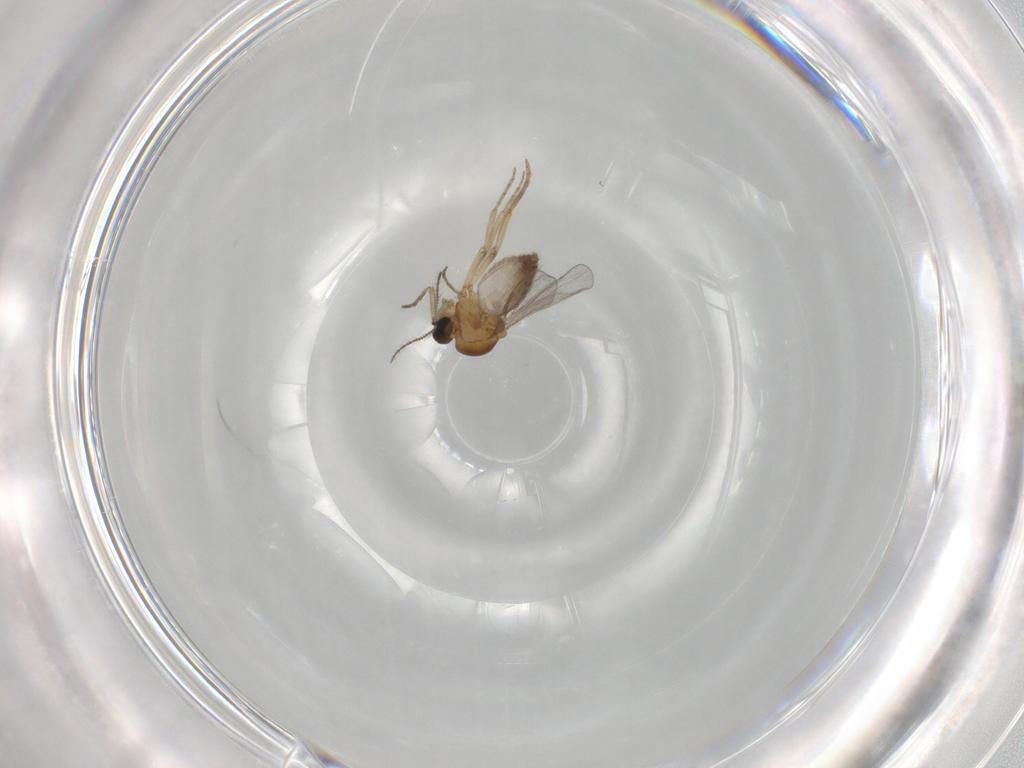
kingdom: Animalia
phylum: Arthropoda
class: Insecta
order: Diptera
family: Ceratopogonidae
